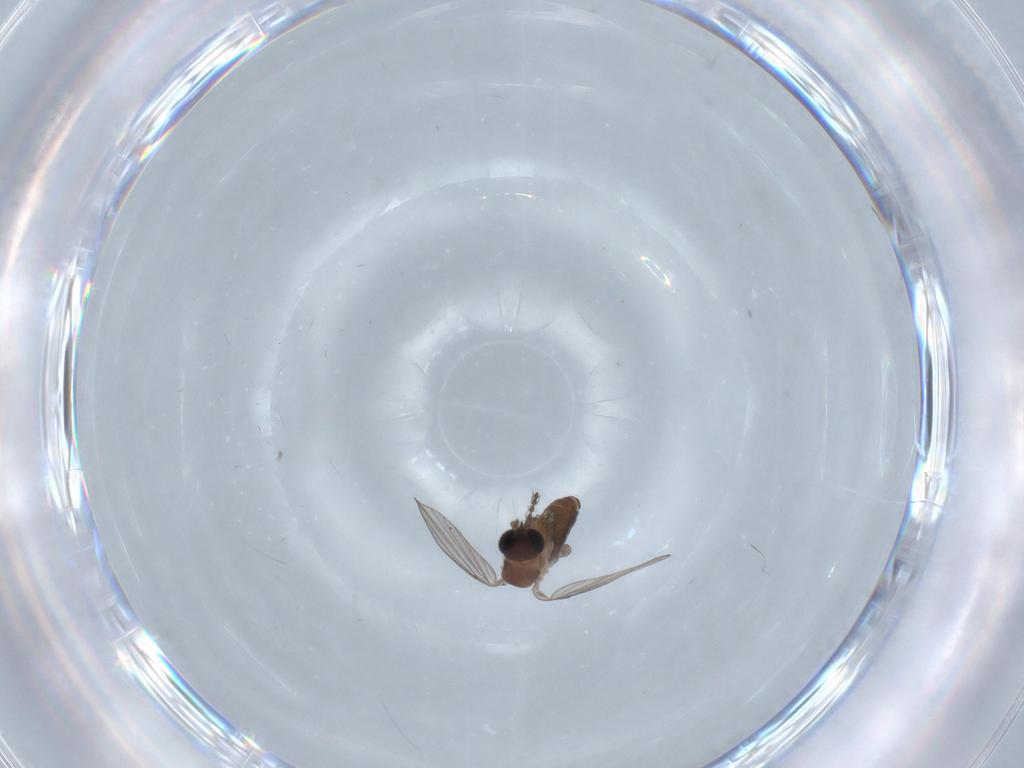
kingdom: Animalia
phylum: Arthropoda
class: Insecta
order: Diptera
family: Psychodidae
